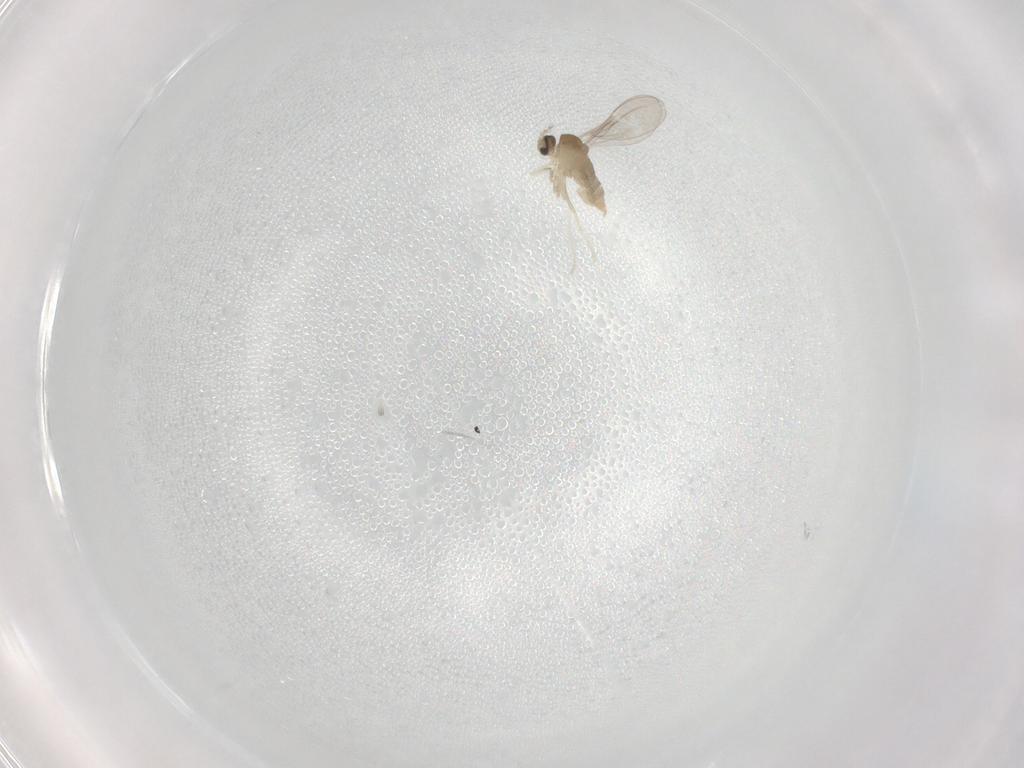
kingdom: Animalia
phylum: Arthropoda
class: Insecta
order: Diptera
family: Cecidomyiidae
